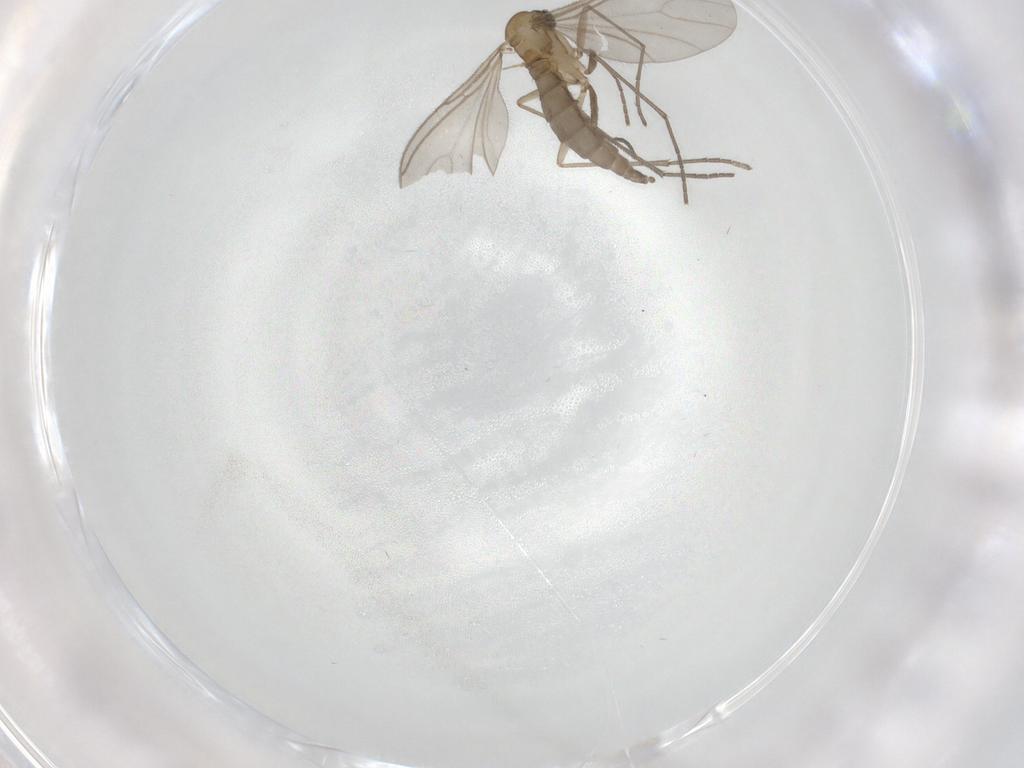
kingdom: Animalia
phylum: Arthropoda
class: Insecta
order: Diptera
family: Sciaridae
